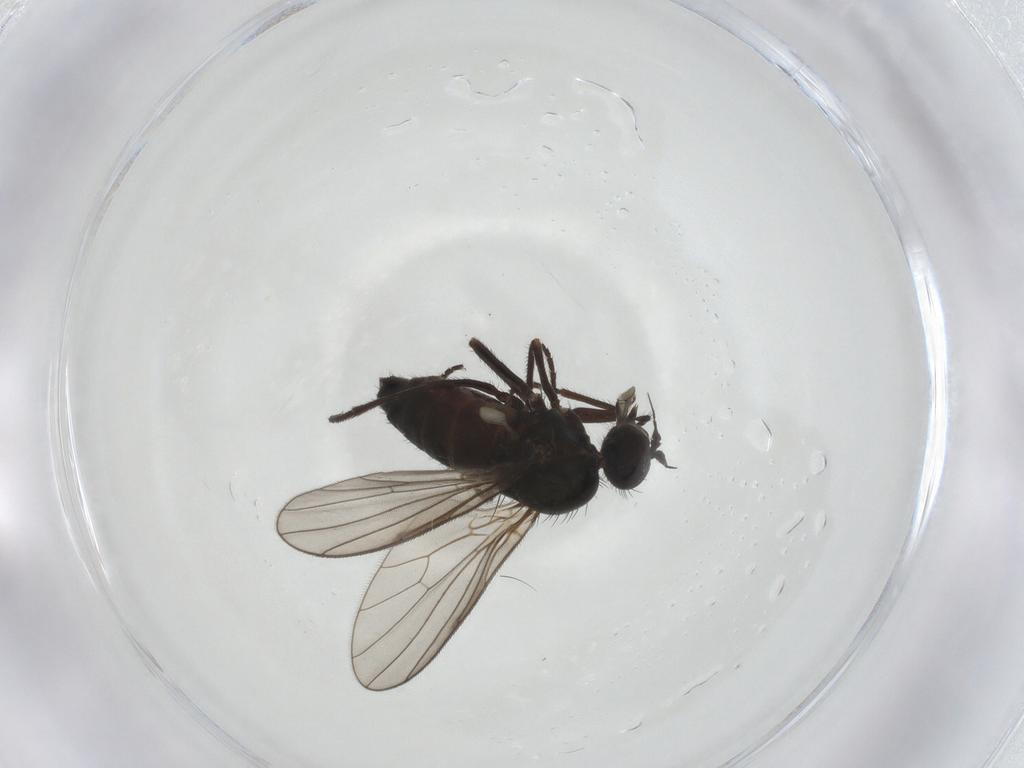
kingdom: Animalia
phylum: Arthropoda
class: Insecta
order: Diptera
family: Dolichopodidae
